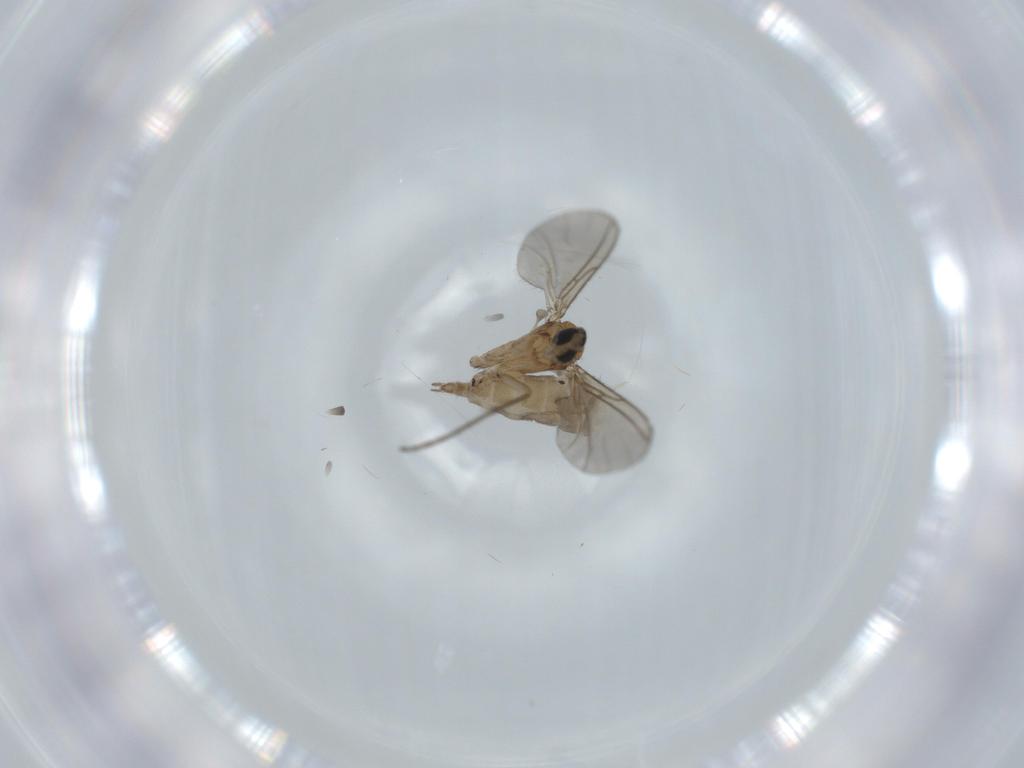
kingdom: Animalia
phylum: Arthropoda
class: Insecta
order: Diptera
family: Sciaridae
